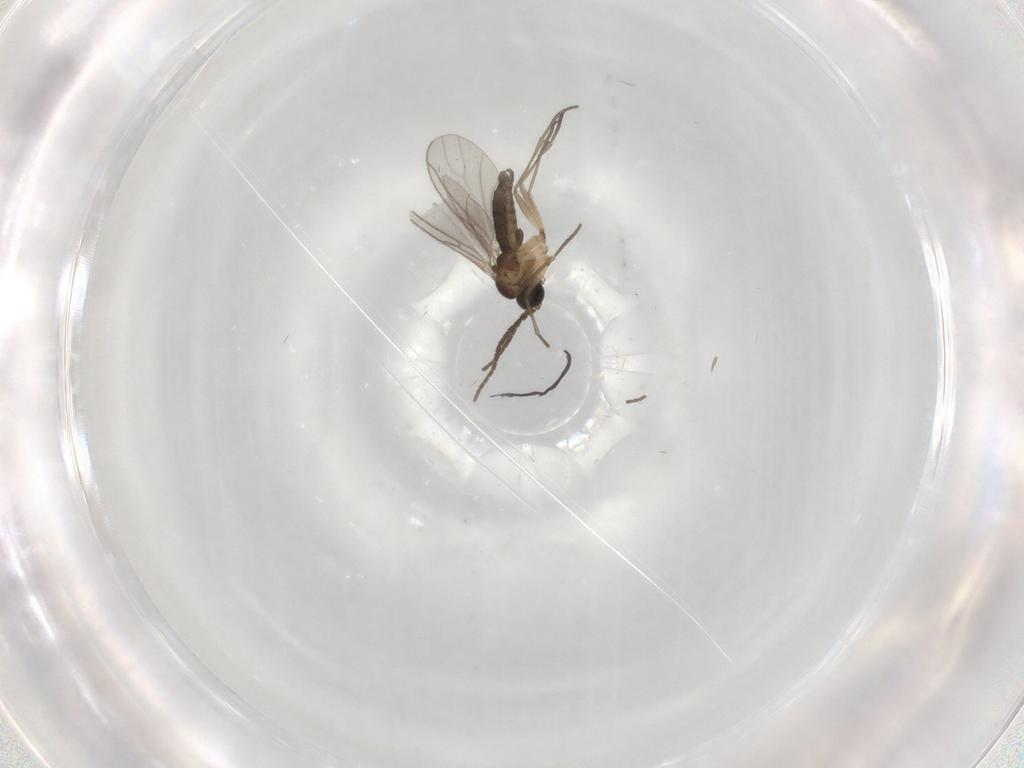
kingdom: Animalia
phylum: Arthropoda
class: Insecta
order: Diptera
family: Sciaridae
